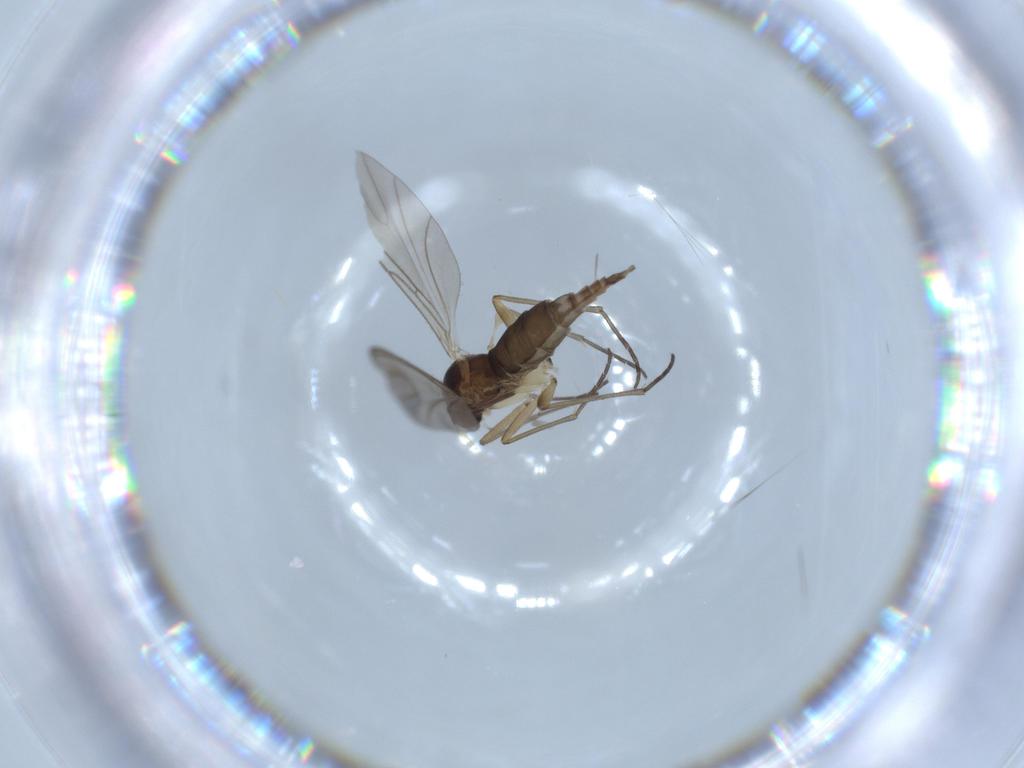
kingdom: Animalia
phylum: Arthropoda
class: Insecta
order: Diptera
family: Sciaridae
